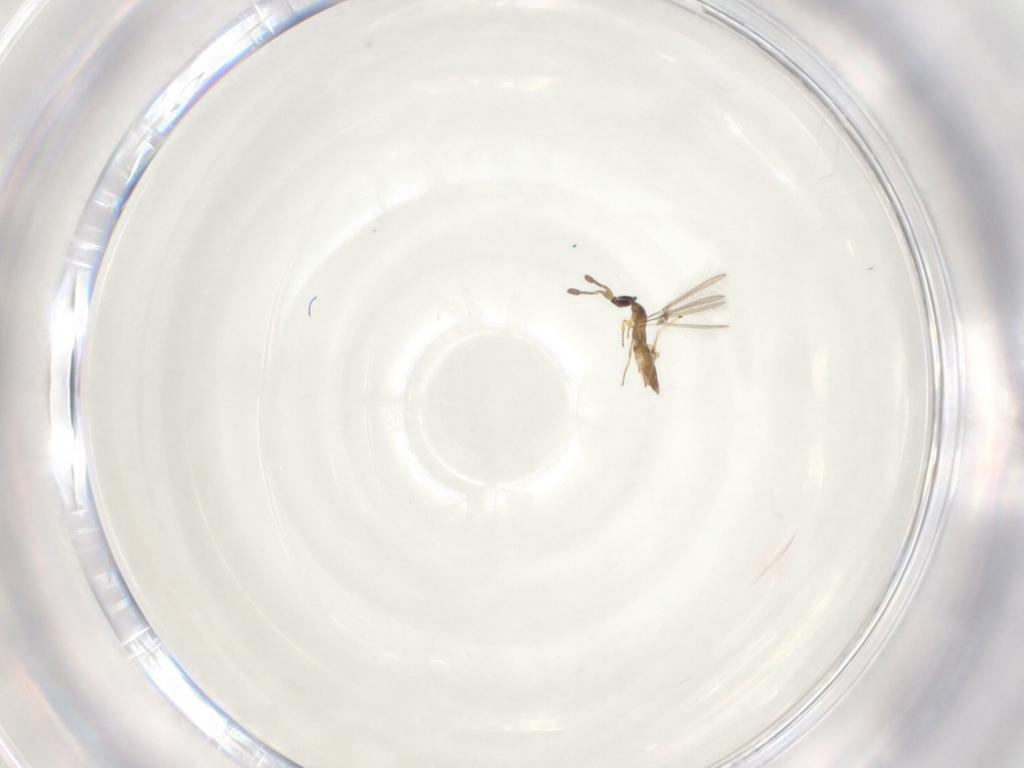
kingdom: Animalia
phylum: Arthropoda
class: Insecta
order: Hymenoptera
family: Mymaridae
